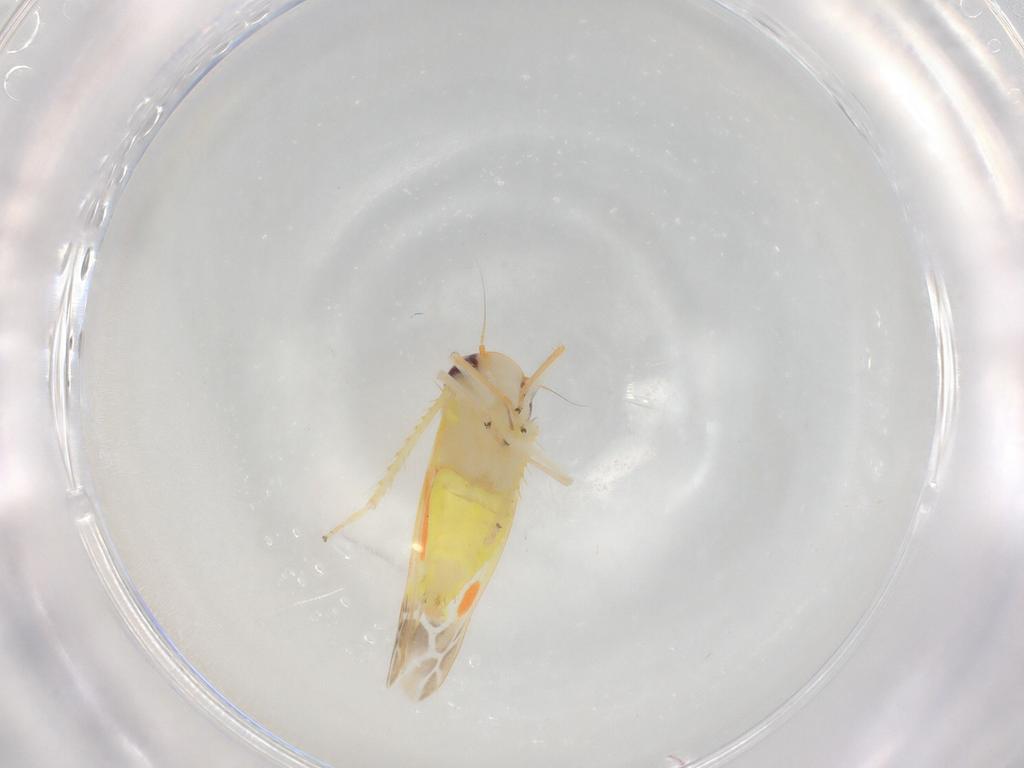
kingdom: Animalia
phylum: Arthropoda
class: Insecta
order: Hemiptera
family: Cicadellidae
